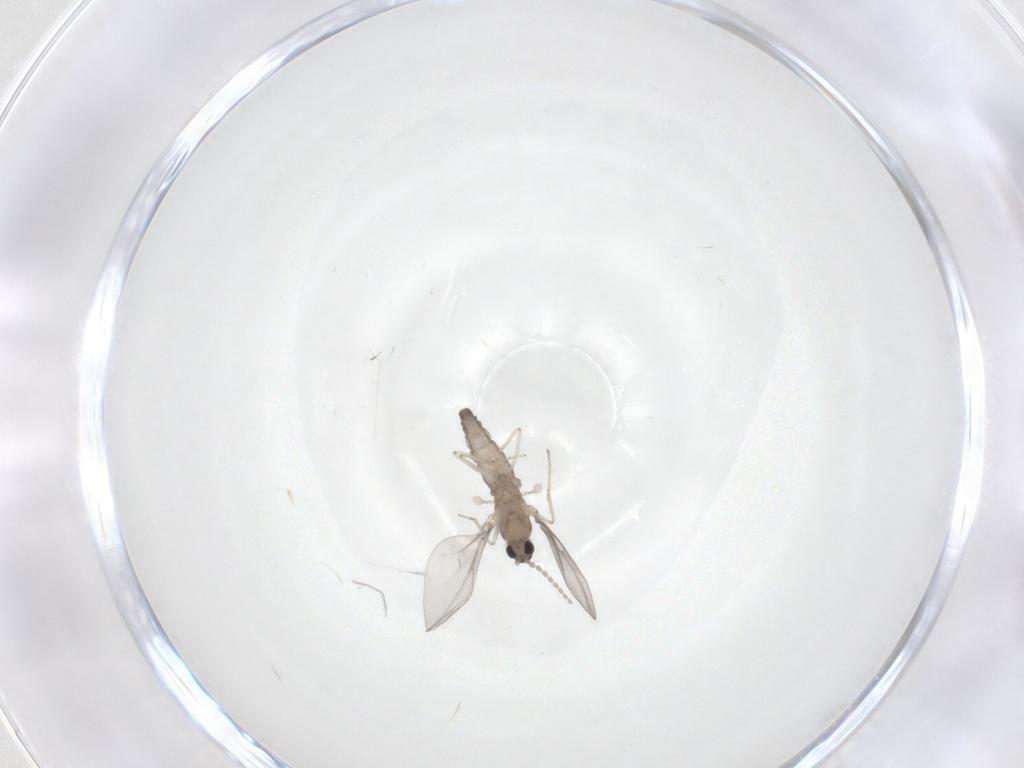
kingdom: Animalia
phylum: Arthropoda
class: Insecta
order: Diptera
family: Cecidomyiidae
